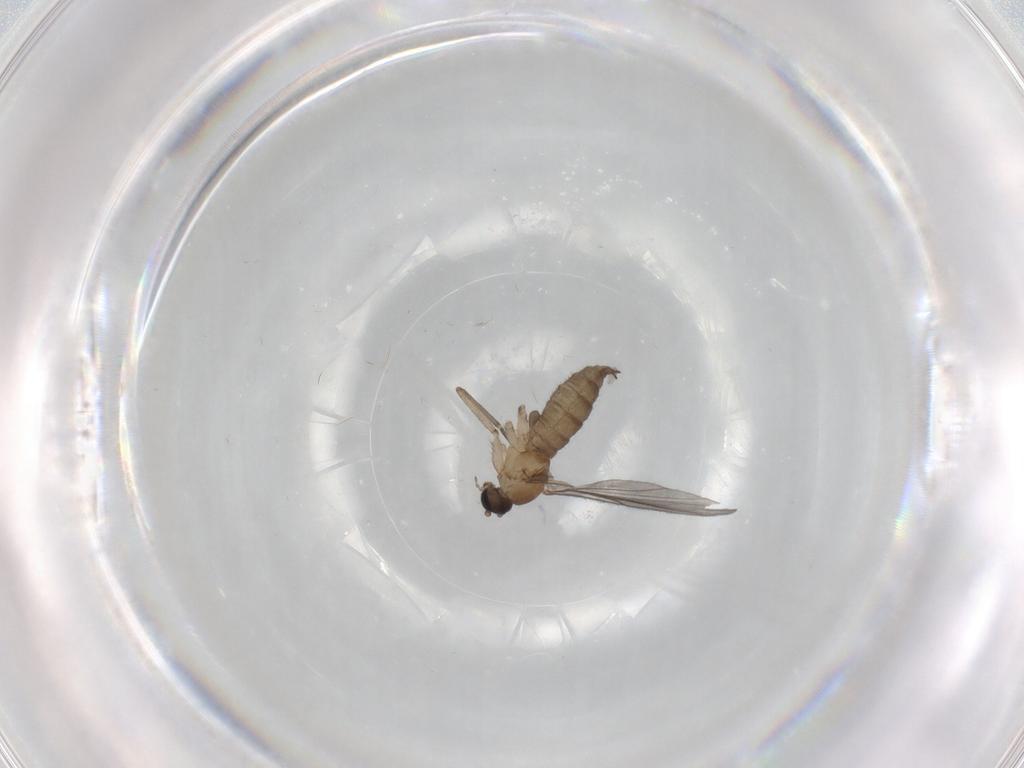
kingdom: Animalia
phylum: Arthropoda
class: Insecta
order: Diptera
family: Sciaridae
